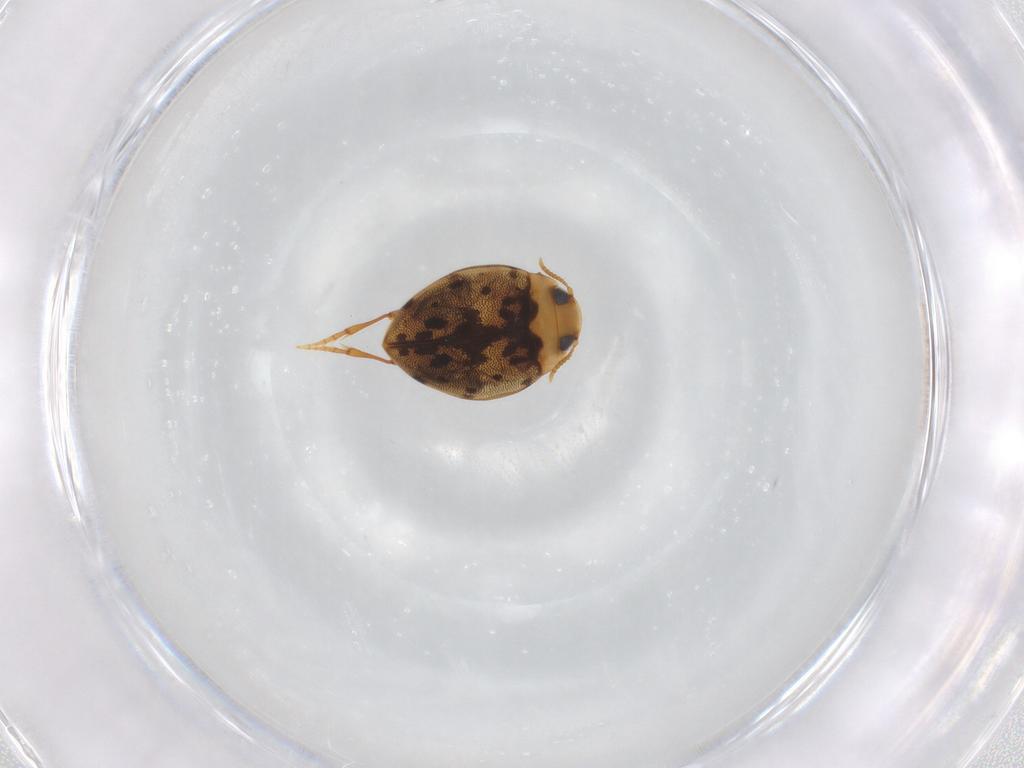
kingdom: Animalia
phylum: Arthropoda
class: Insecta
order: Coleoptera
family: Dytiscidae
